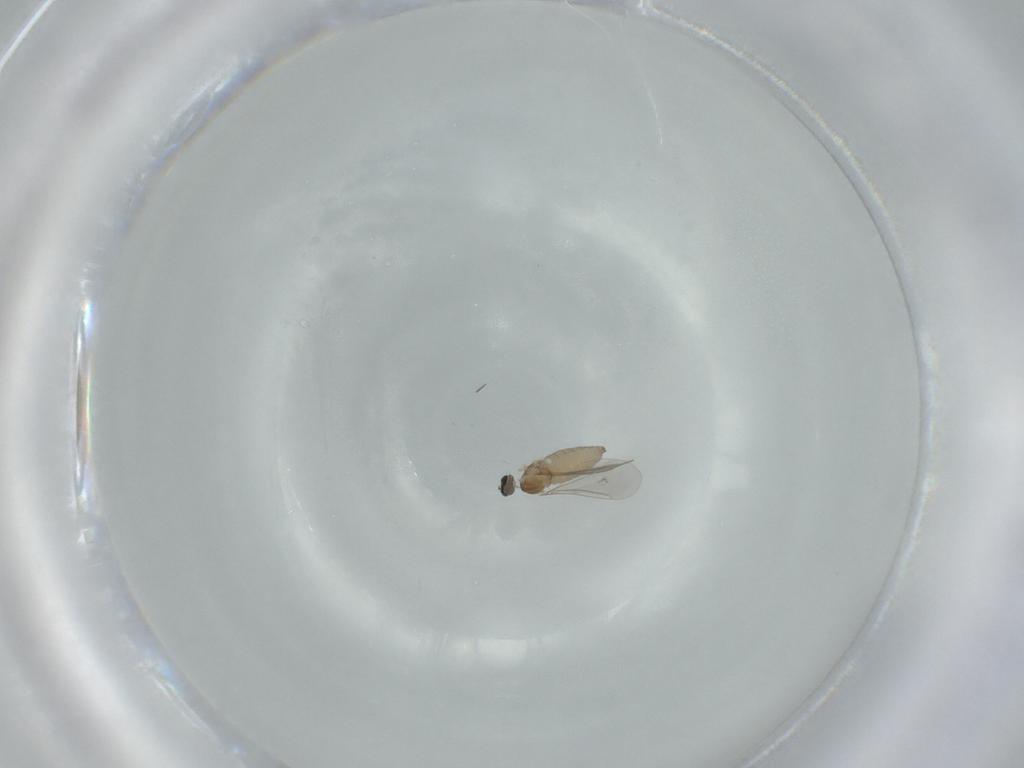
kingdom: Animalia
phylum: Arthropoda
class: Insecta
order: Diptera
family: Cecidomyiidae
